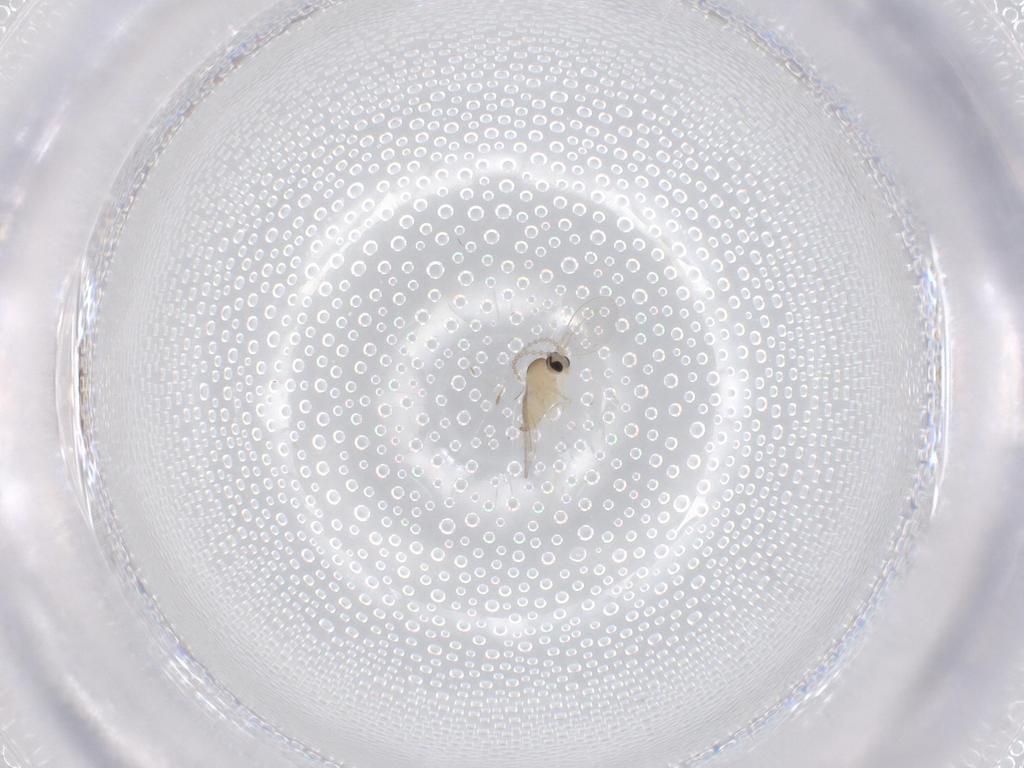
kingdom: Animalia
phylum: Arthropoda
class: Insecta
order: Diptera
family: Cecidomyiidae
